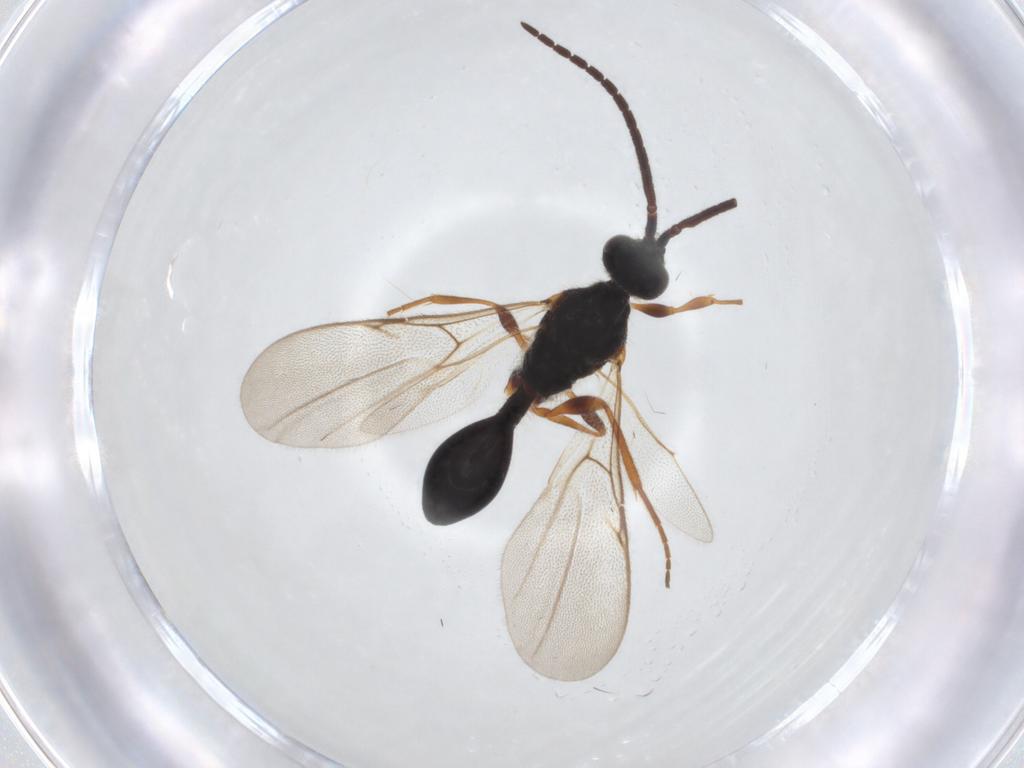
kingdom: Animalia
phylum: Arthropoda
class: Insecta
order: Hymenoptera
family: Diapriidae
